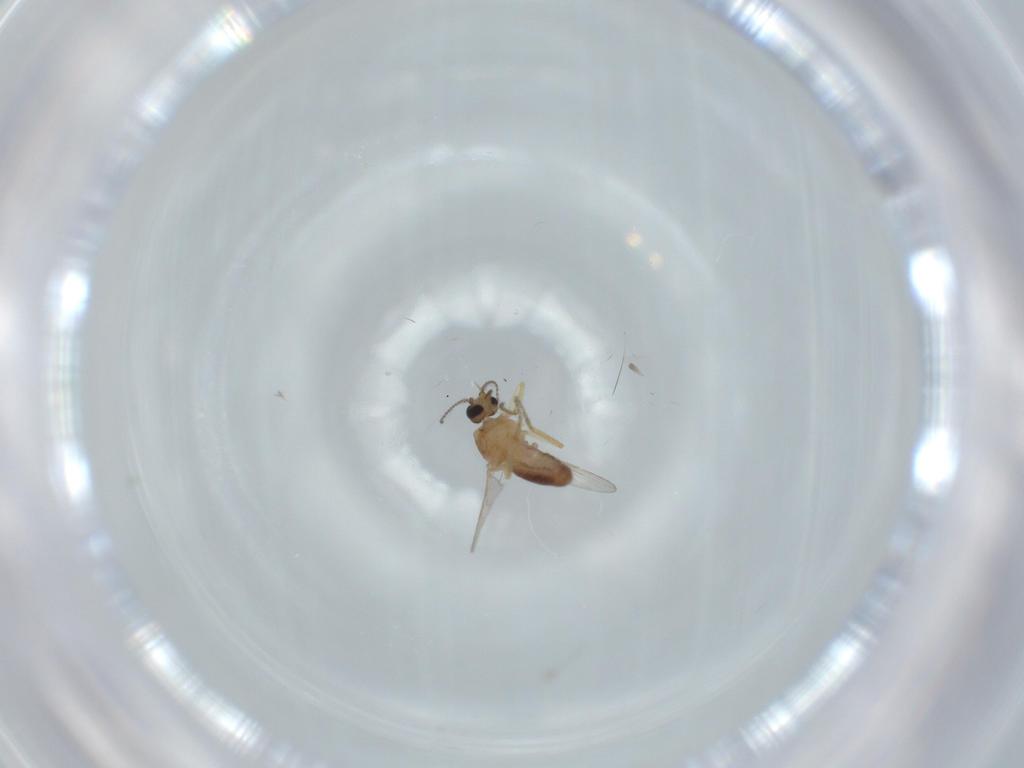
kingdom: Animalia
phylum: Arthropoda
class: Insecta
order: Diptera
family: Ceratopogonidae
